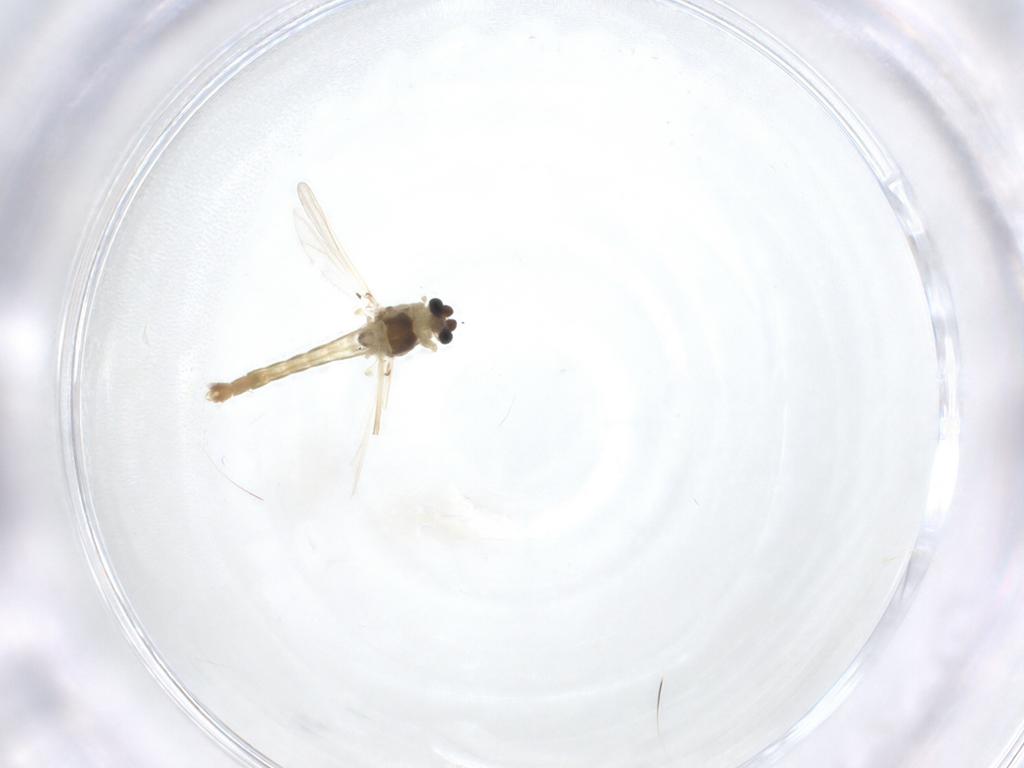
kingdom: Animalia
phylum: Arthropoda
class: Insecta
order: Diptera
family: Chironomidae
